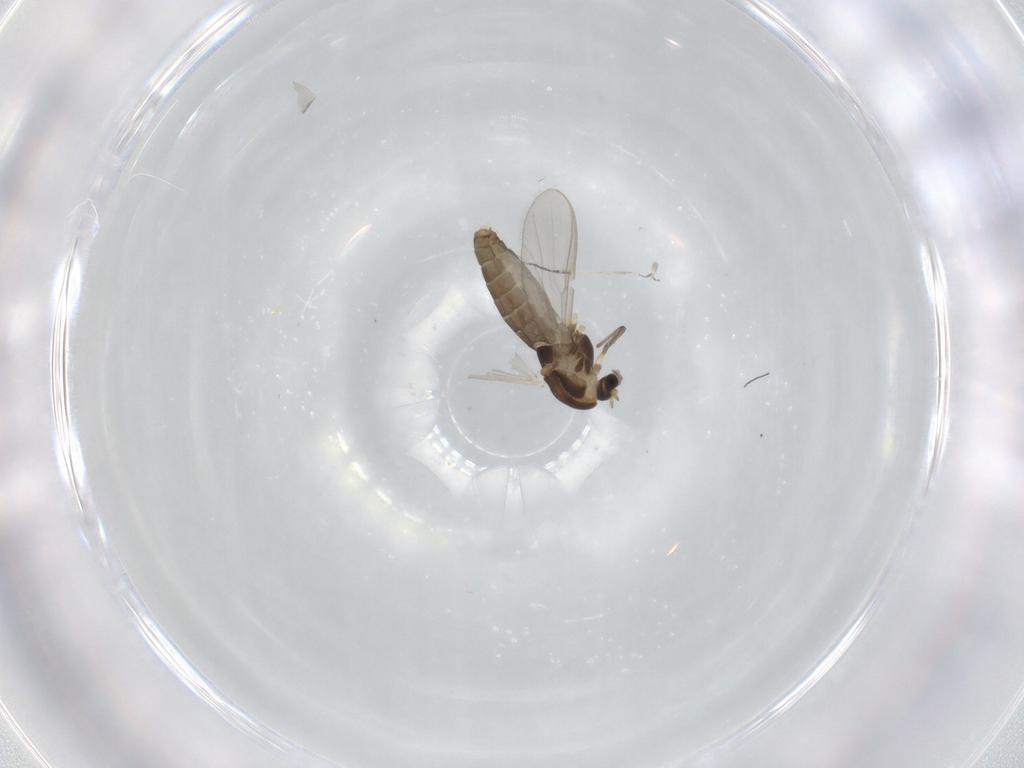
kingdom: Animalia
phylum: Arthropoda
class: Insecta
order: Diptera
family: Chironomidae
